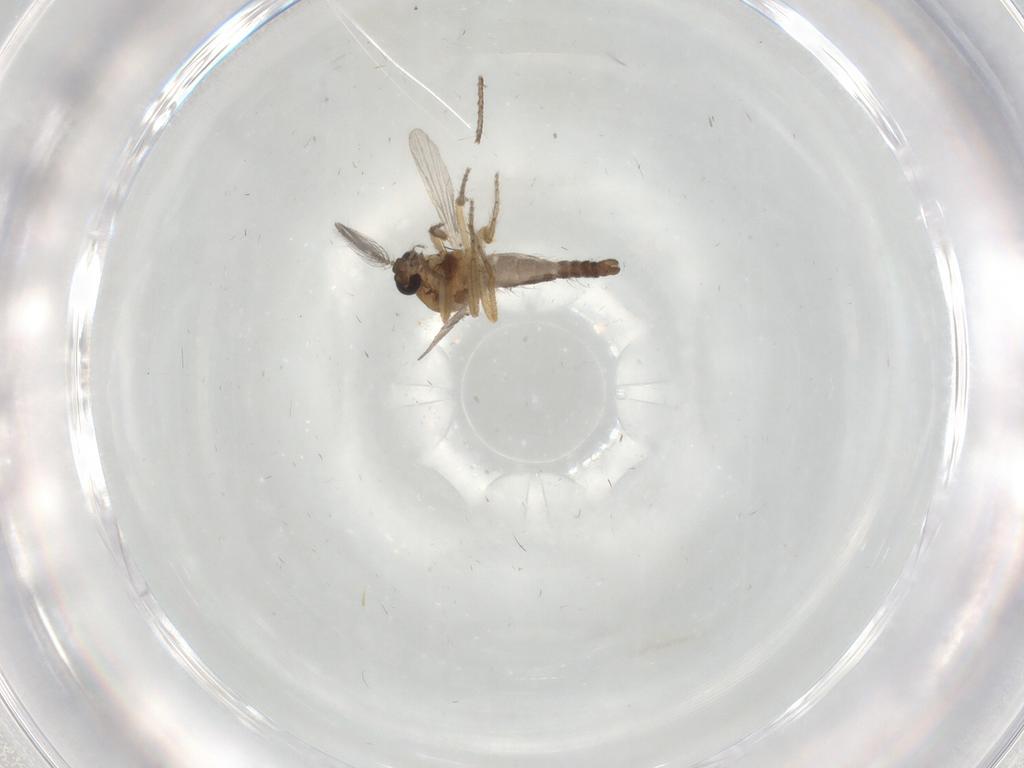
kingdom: Animalia
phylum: Arthropoda
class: Insecta
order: Diptera
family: Ceratopogonidae
